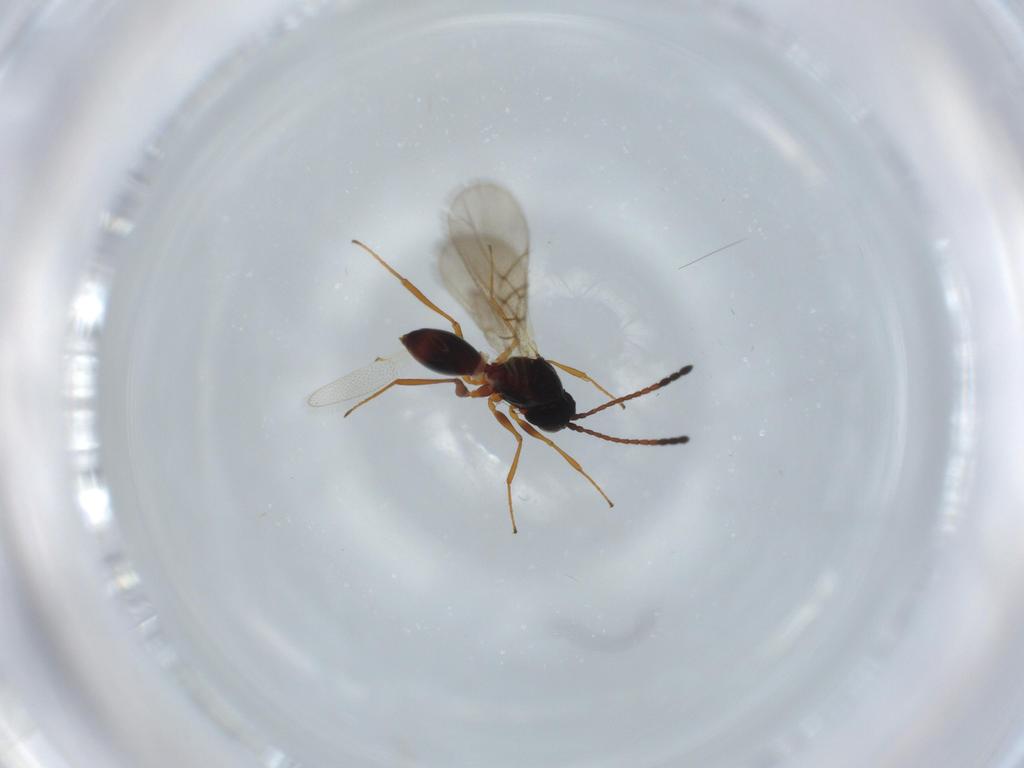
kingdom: Animalia
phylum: Arthropoda
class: Insecta
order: Hymenoptera
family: Figitidae
